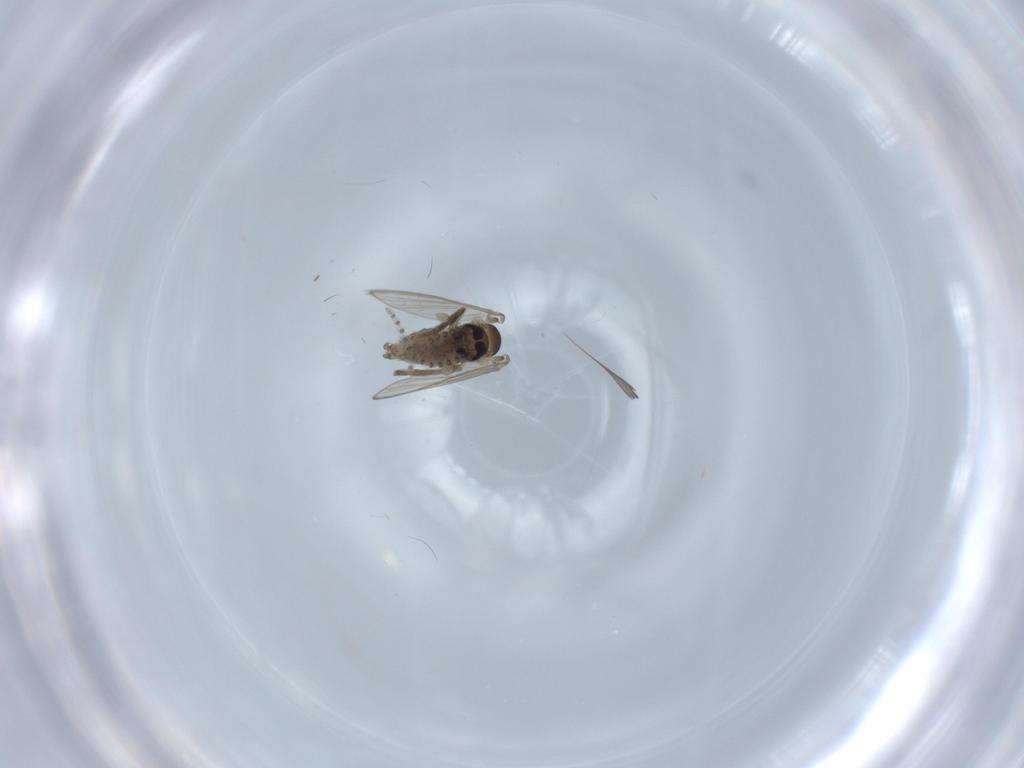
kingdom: Animalia
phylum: Arthropoda
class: Insecta
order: Diptera
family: Psychodidae
